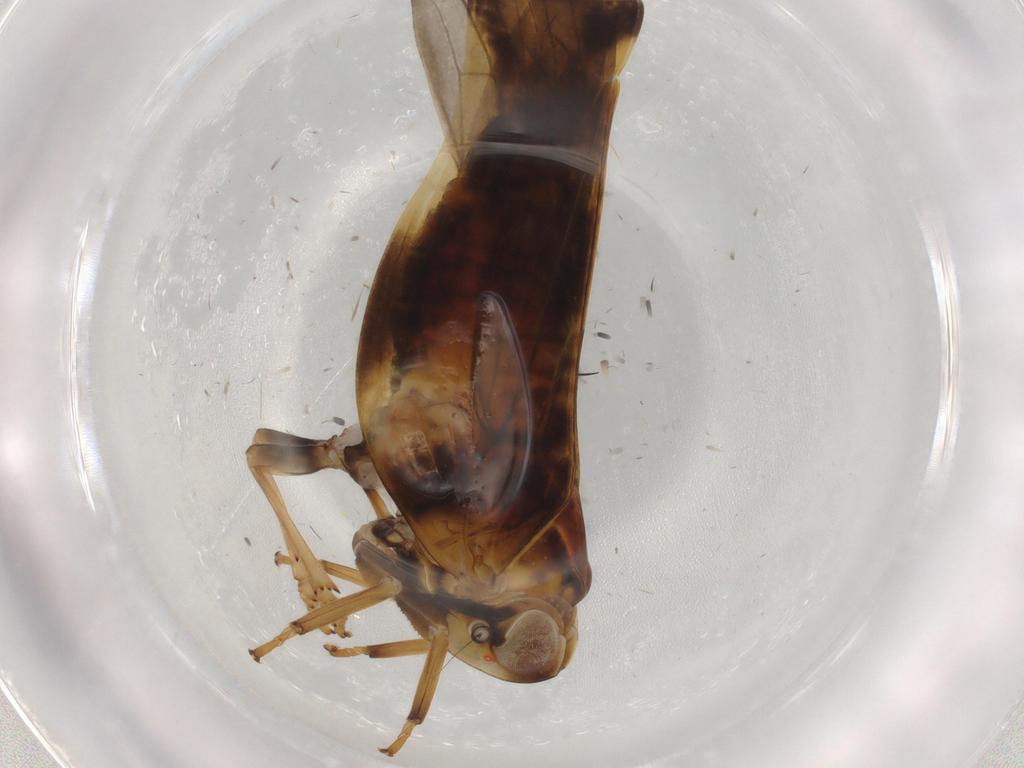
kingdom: Animalia
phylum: Arthropoda
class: Insecta
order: Hemiptera
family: Nogodinidae
